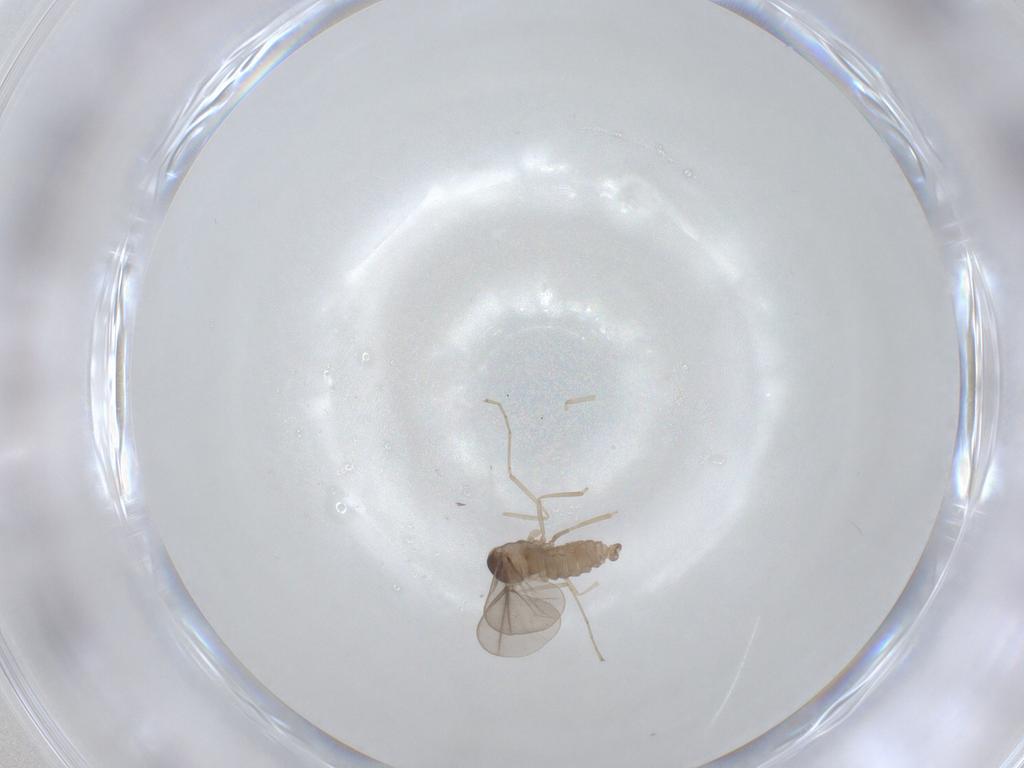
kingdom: Animalia
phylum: Arthropoda
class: Insecta
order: Diptera
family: Cecidomyiidae
